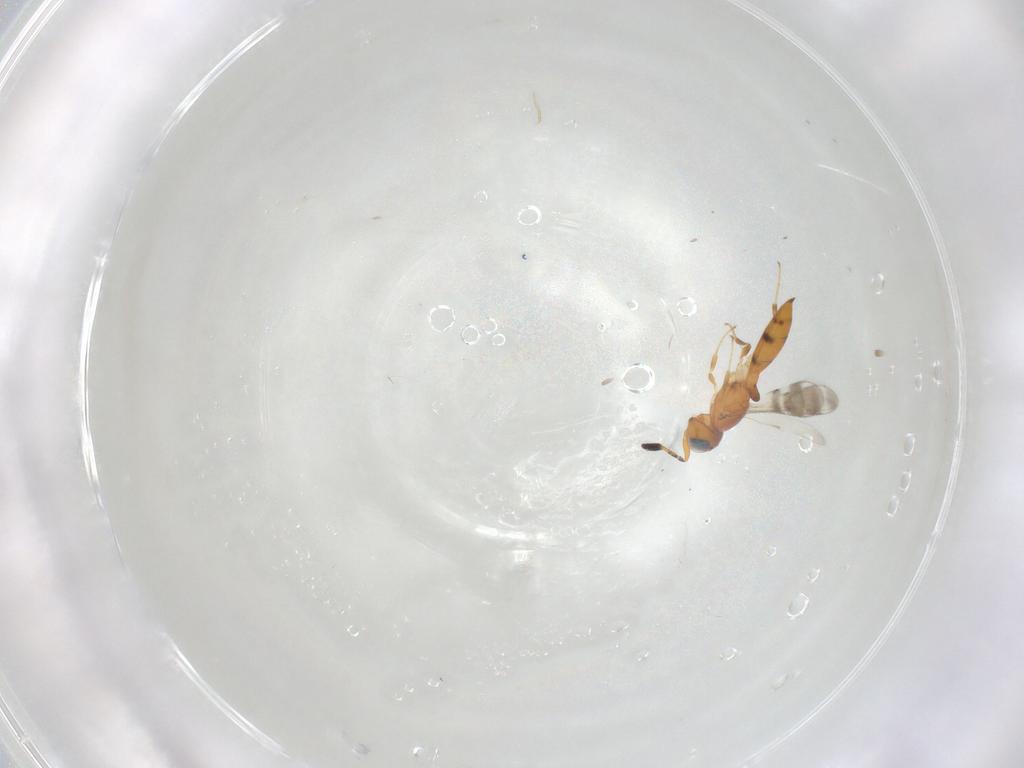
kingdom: Animalia
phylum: Arthropoda
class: Insecta
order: Hymenoptera
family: Scelionidae
